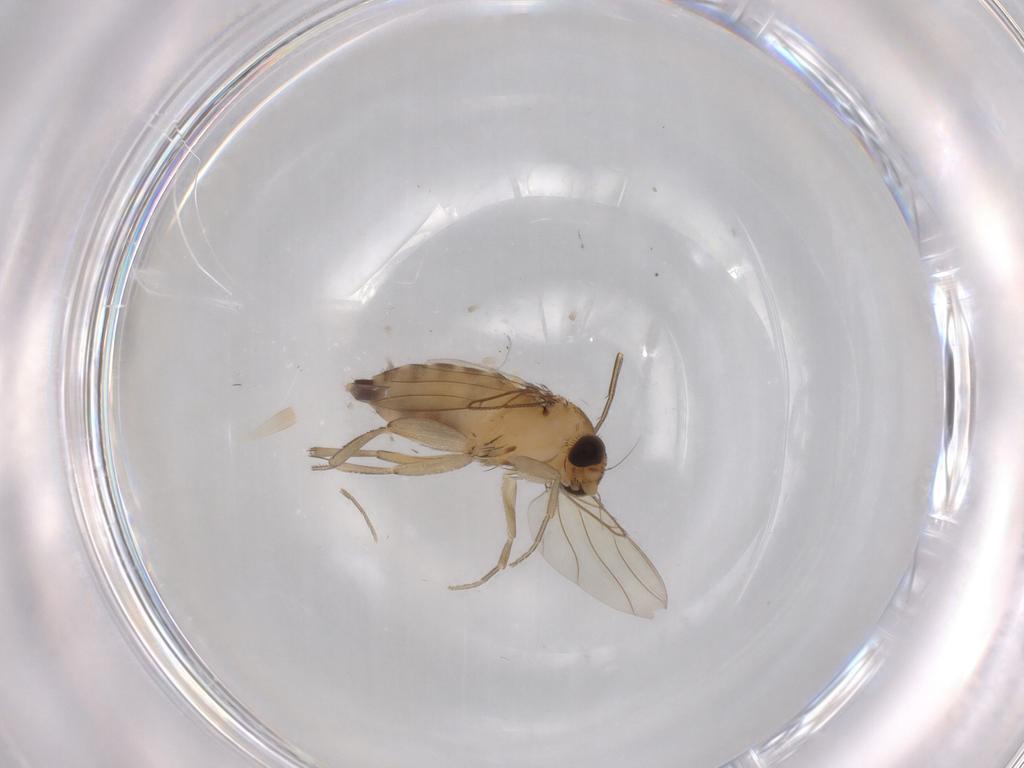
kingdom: Animalia
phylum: Arthropoda
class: Insecta
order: Diptera
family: Phoridae
